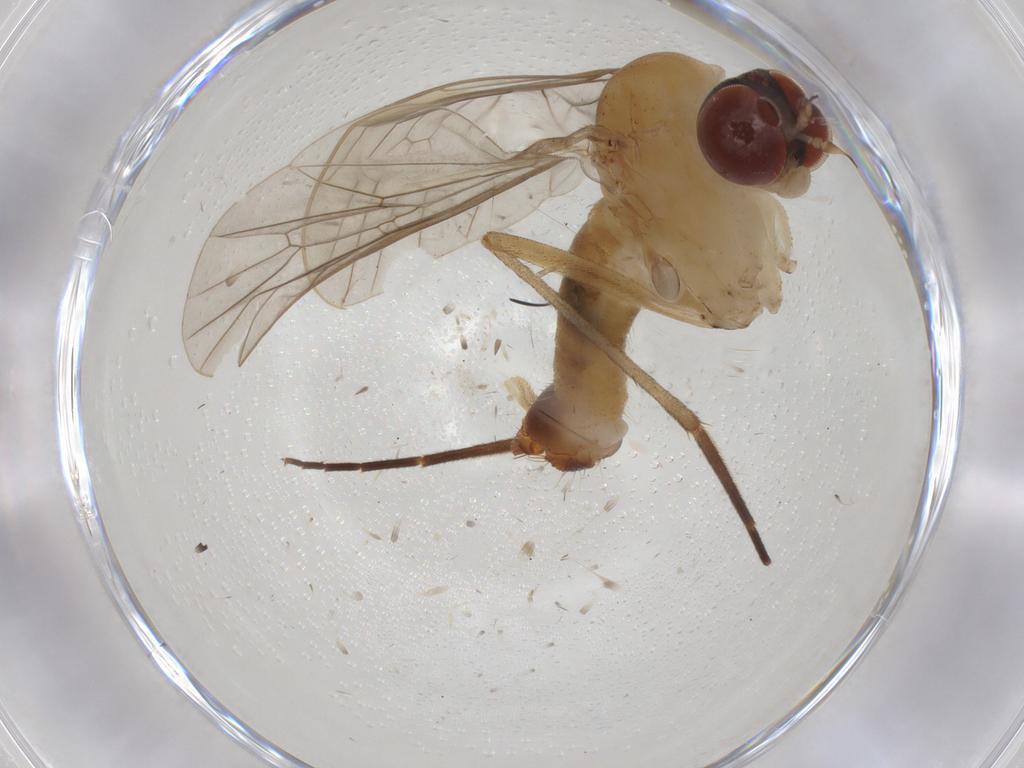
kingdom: Animalia
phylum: Arthropoda
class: Insecta
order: Diptera
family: Apsilocephalidae
